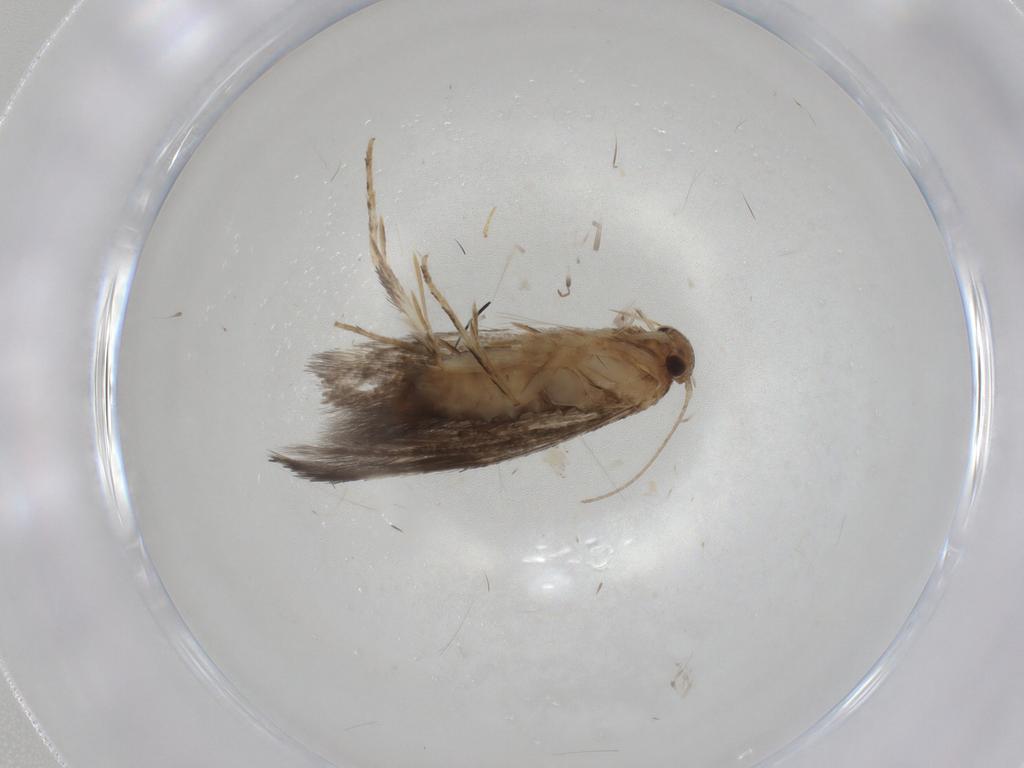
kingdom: Animalia
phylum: Arthropoda
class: Insecta
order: Lepidoptera
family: Elachistidae
